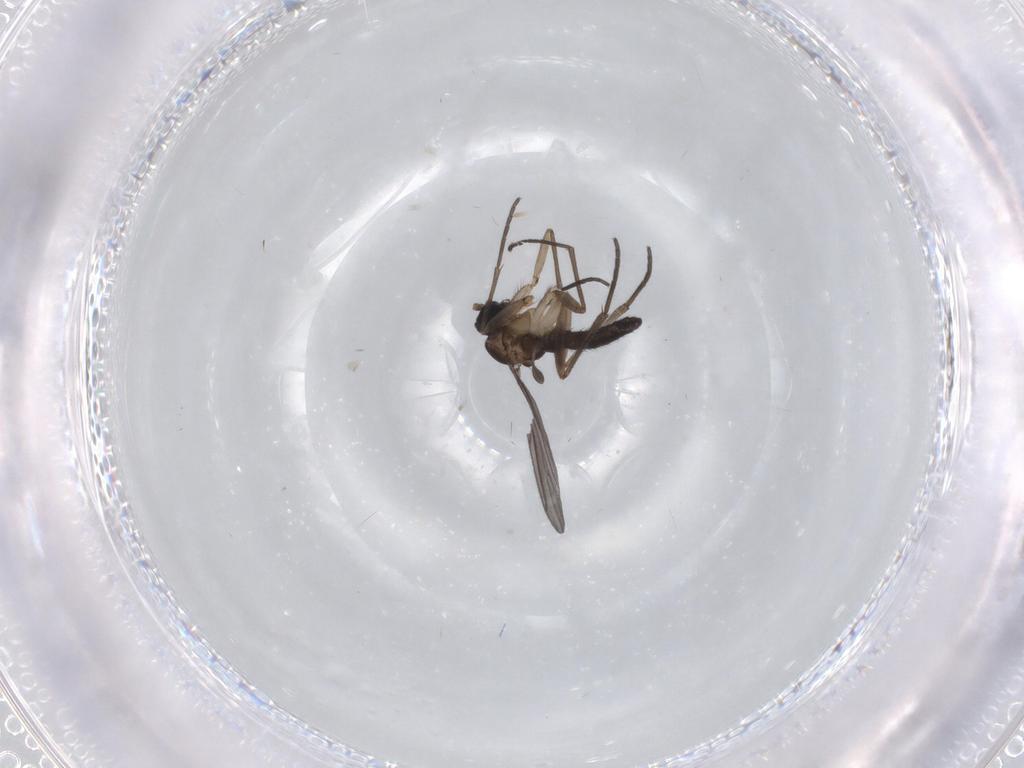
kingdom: Animalia
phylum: Arthropoda
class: Insecta
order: Diptera
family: Sciaridae
